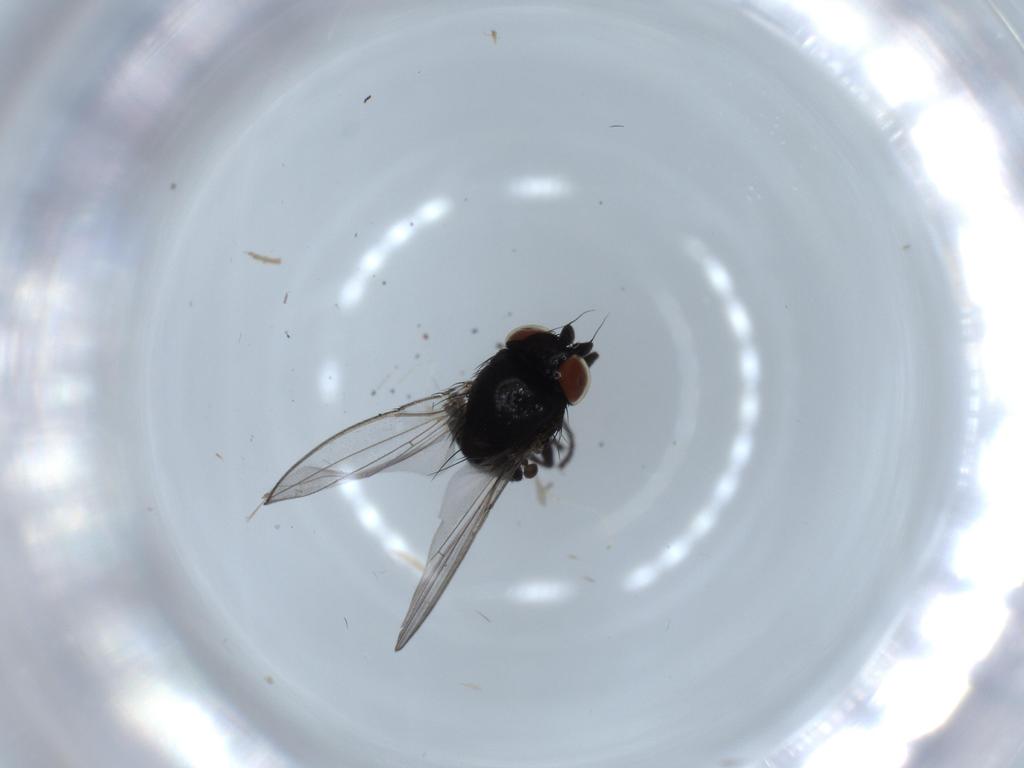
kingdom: Animalia
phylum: Arthropoda
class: Insecta
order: Diptera
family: Milichiidae
